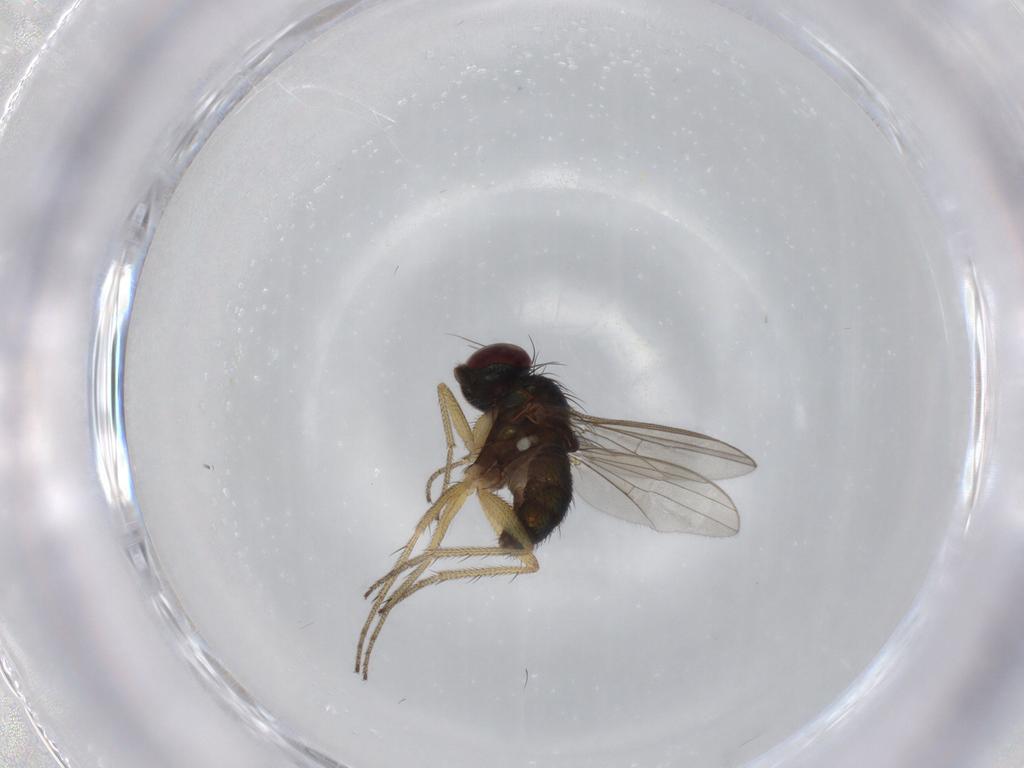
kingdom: Animalia
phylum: Arthropoda
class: Insecta
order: Diptera
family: Dolichopodidae
